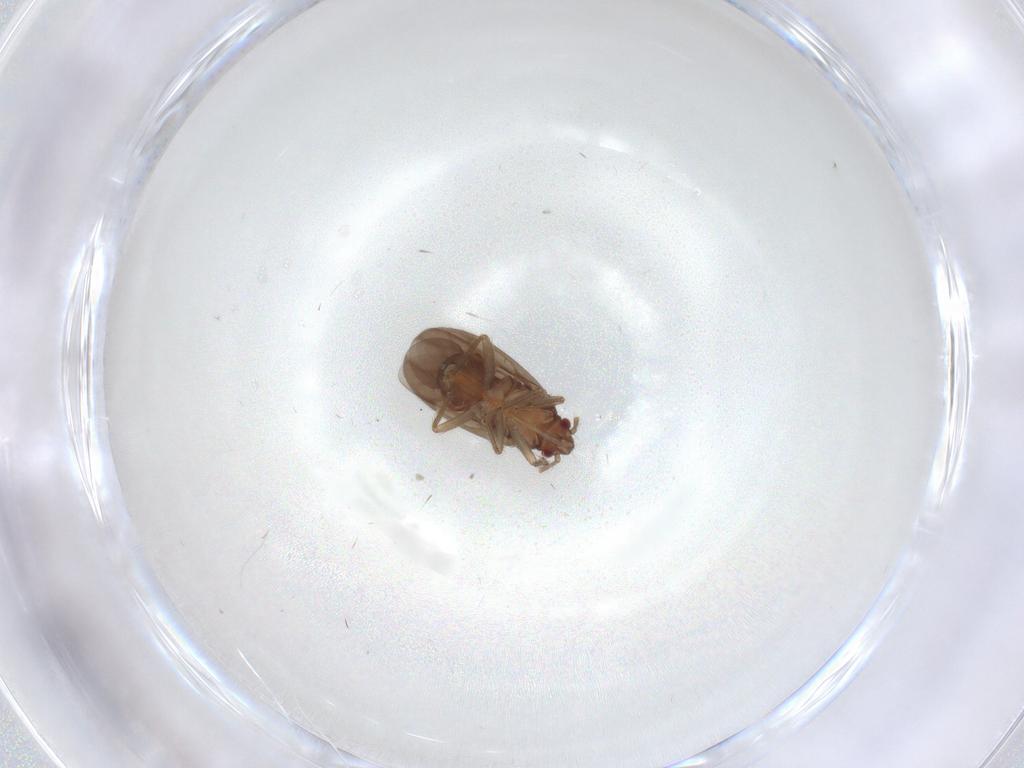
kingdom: Animalia
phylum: Arthropoda
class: Insecta
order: Hemiptera
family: Ceratocombidae
